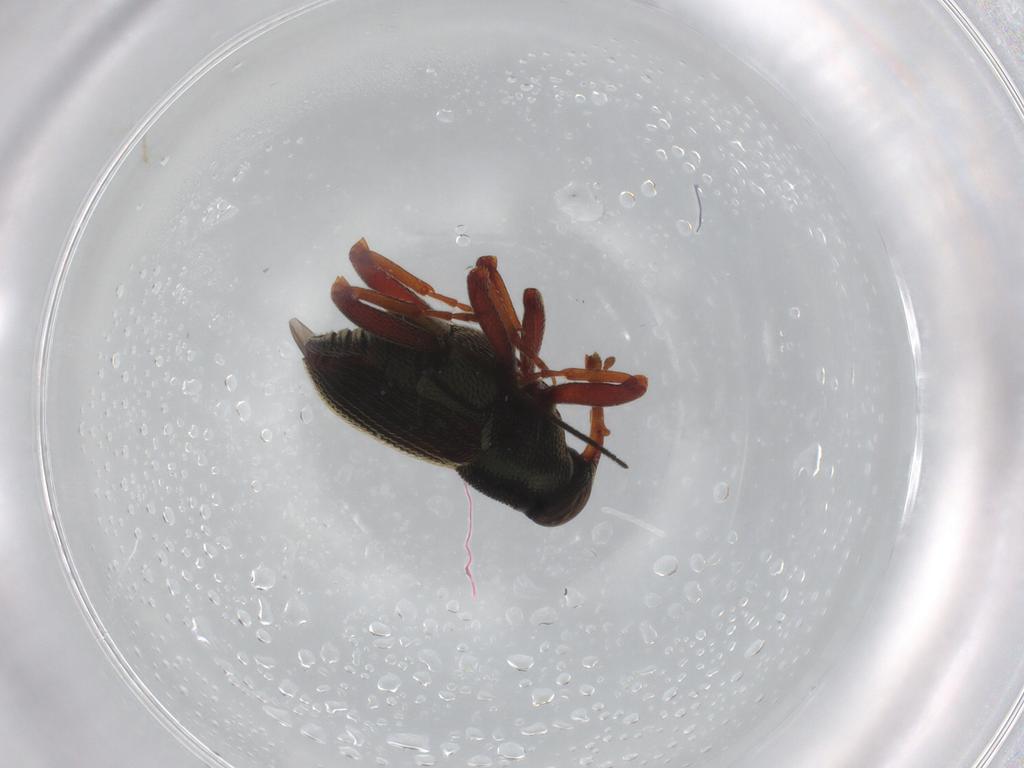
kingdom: Animalia
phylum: Arthropoda
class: Insecta
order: Coleoptera
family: Curculionidae
